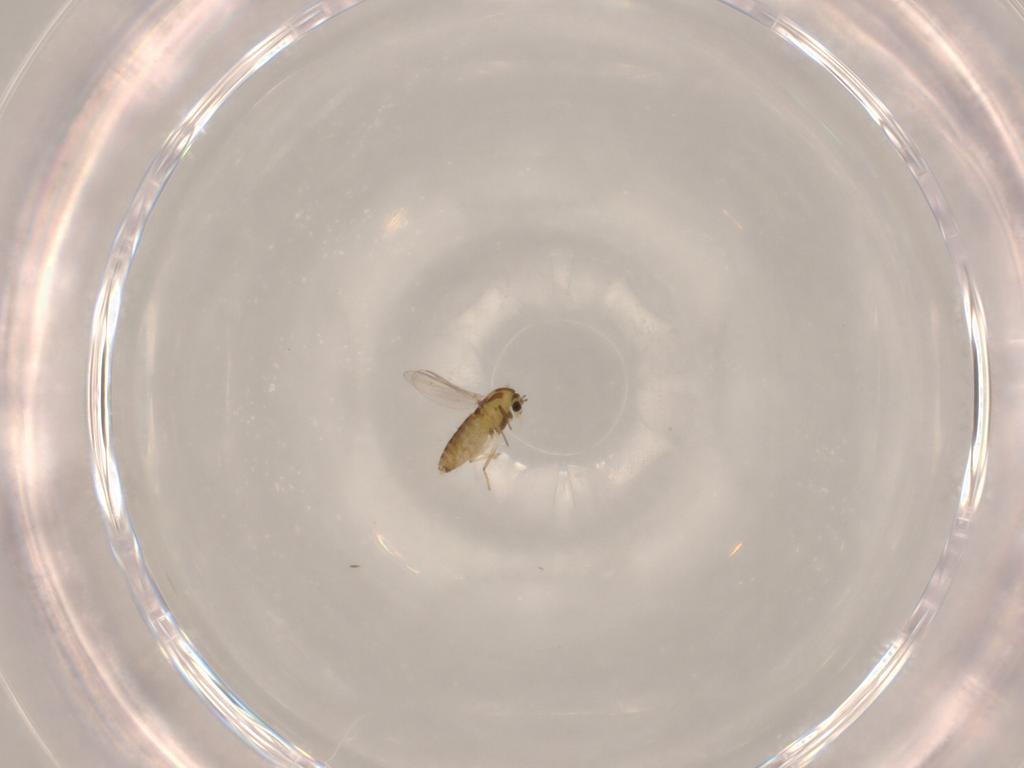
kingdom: Animalia
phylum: Arthropoda
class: Insecta
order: Diptera
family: Chironomidae
